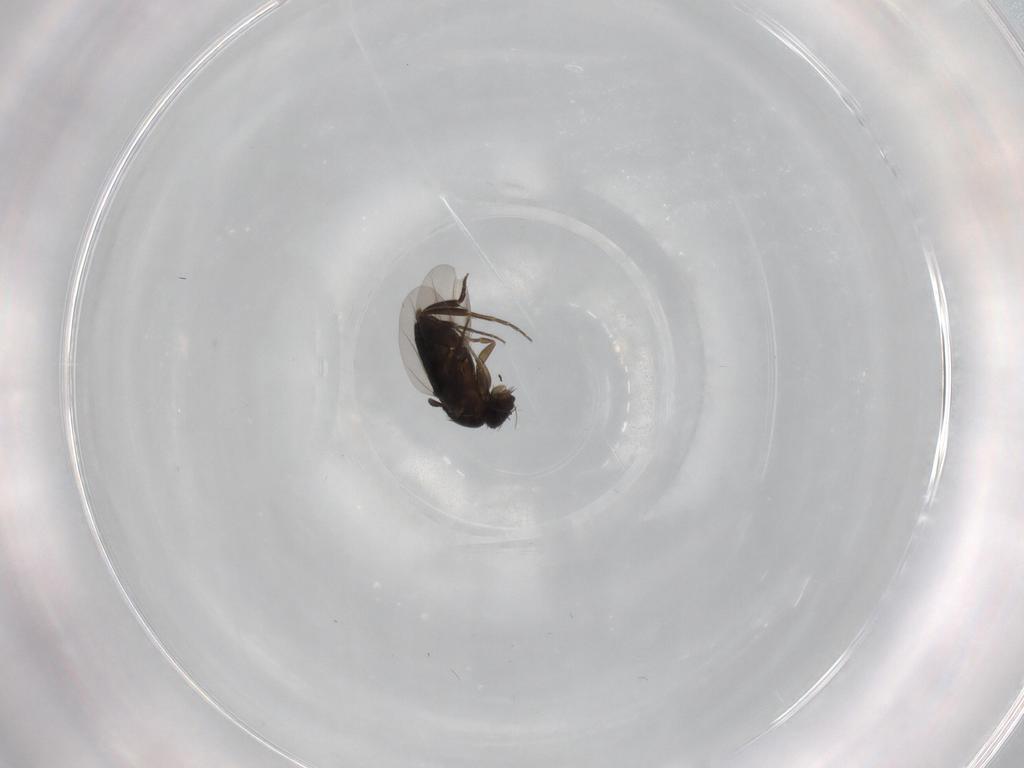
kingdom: Animalia
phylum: Arthropoda
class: Insecta
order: Diptera
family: Phoridae
